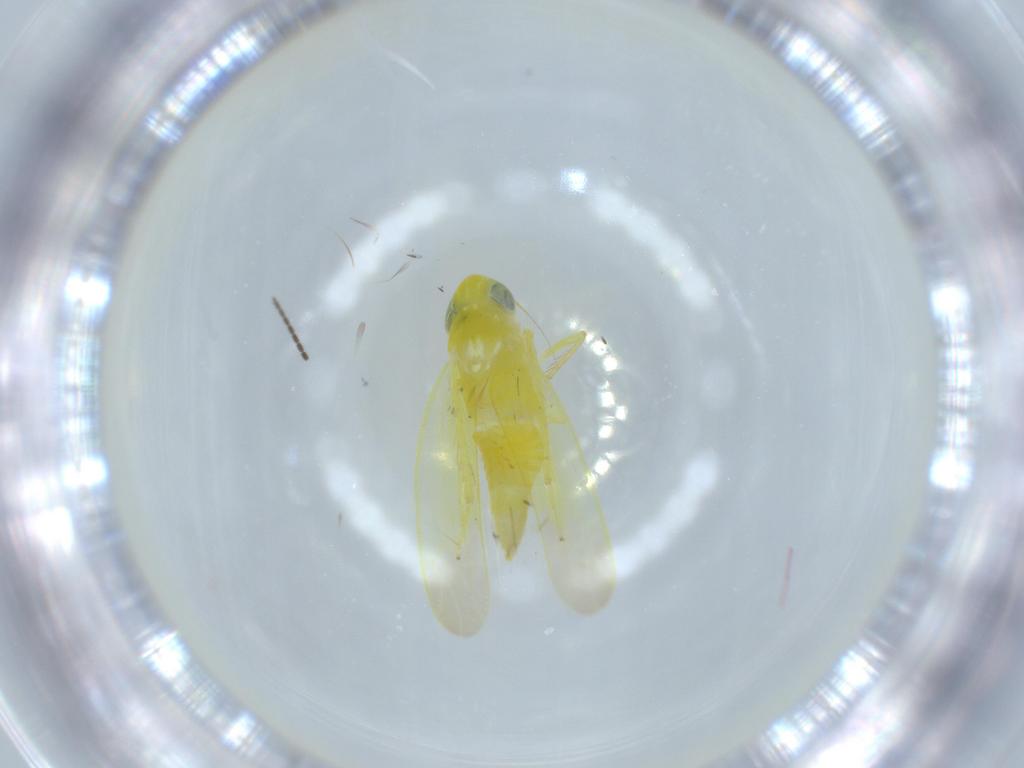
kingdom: Animalia
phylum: Arthropoda
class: Insecta
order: Hemiptera
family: Cicadellidae
